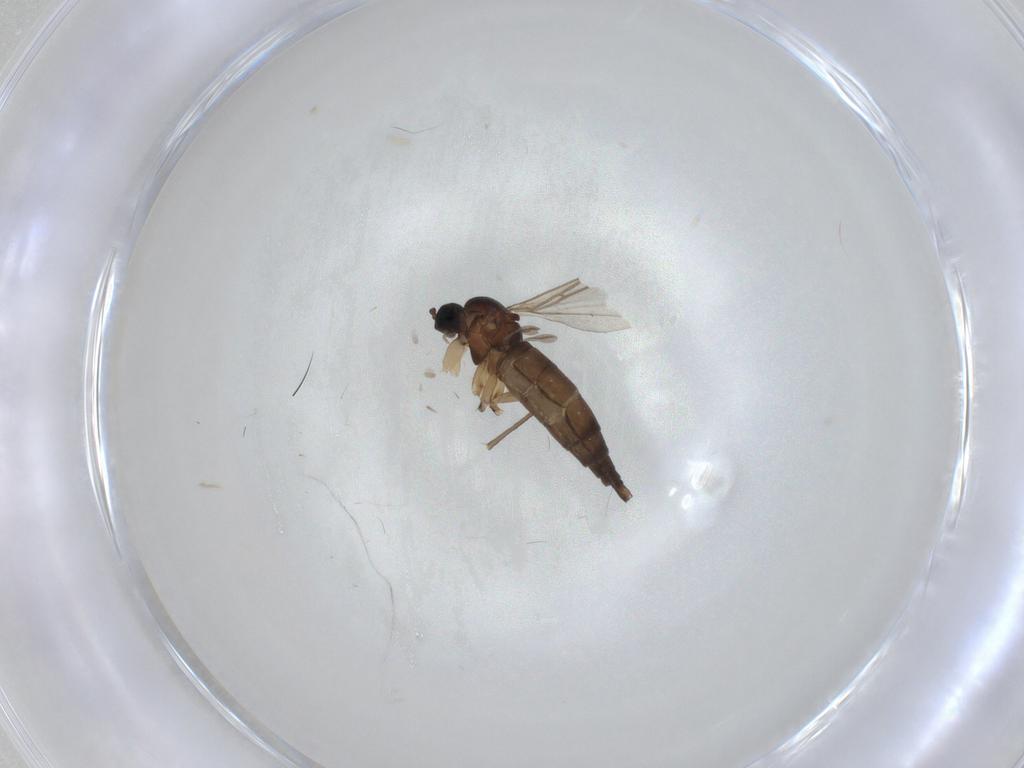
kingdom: Animalia
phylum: Arthropoda
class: Insecta
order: Diptera
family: Sciaridae
